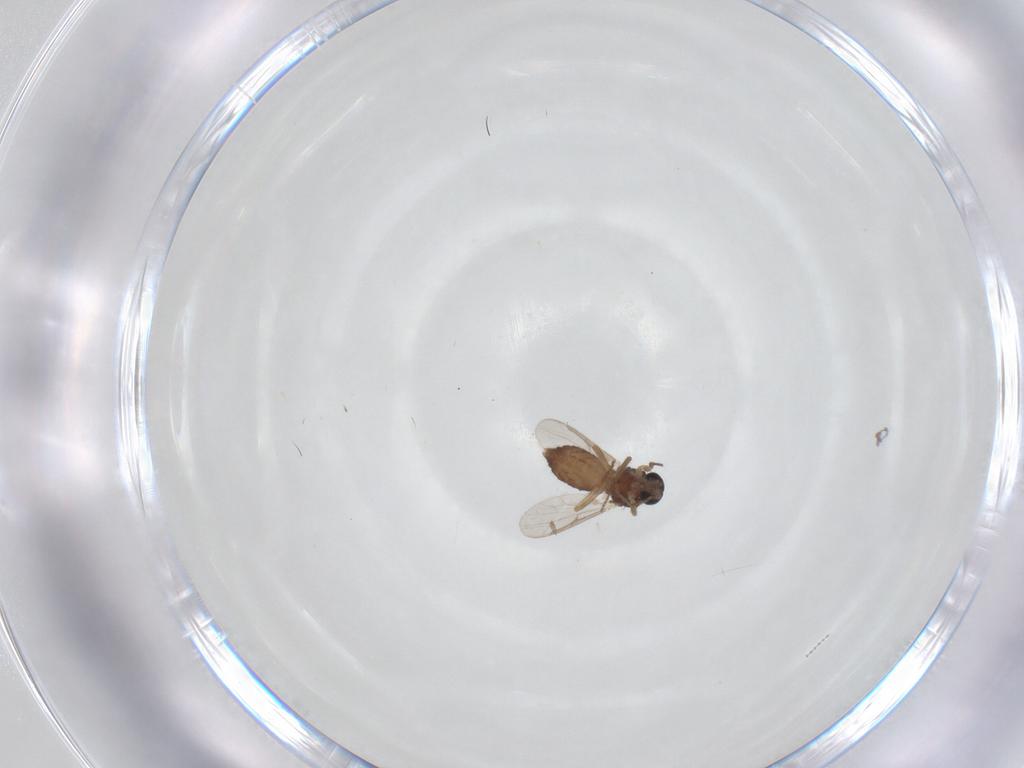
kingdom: Animalia
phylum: Arthropoda
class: Insecta
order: Diptera
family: Ceratopogonidae
